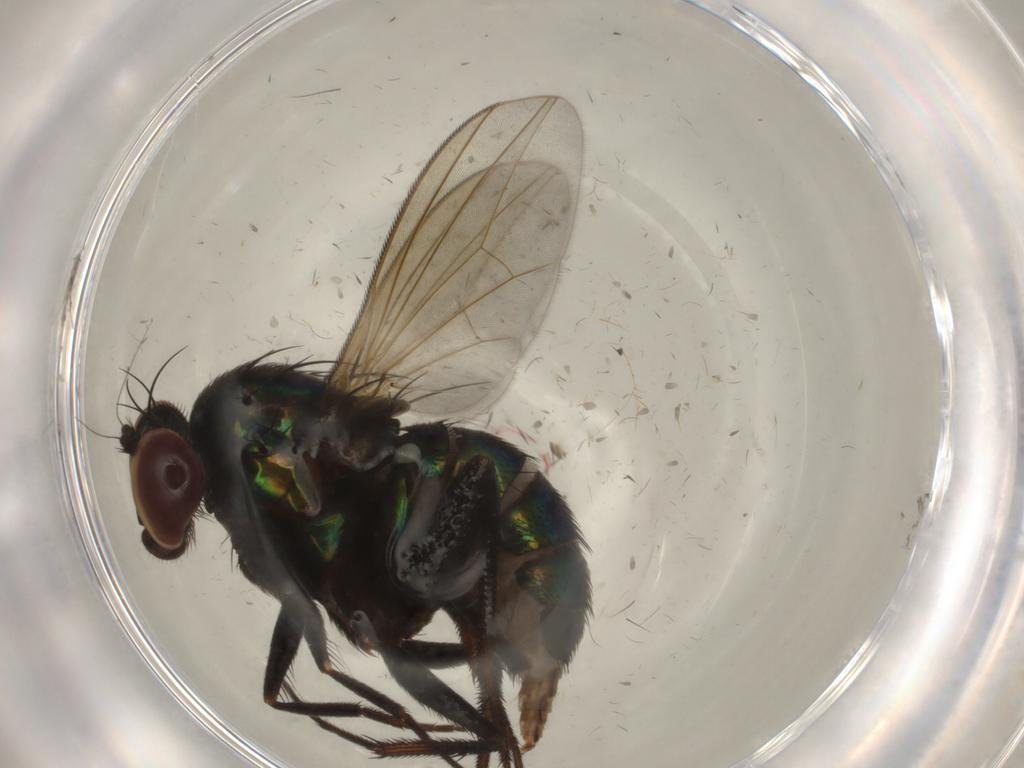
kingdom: Animalia
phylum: Arthropoda
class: Insecta
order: Diptera
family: Dolichopodidae
